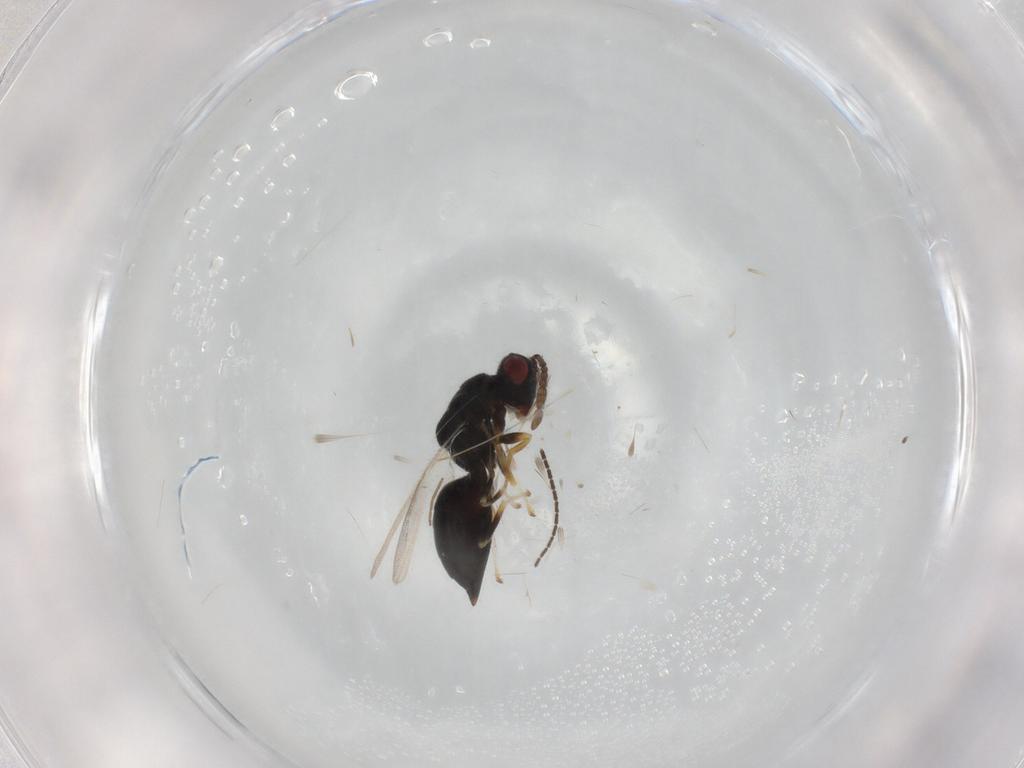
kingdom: Animalia
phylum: Arthropoda
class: Insecta
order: Hymenoptera
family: Eurytomidae
